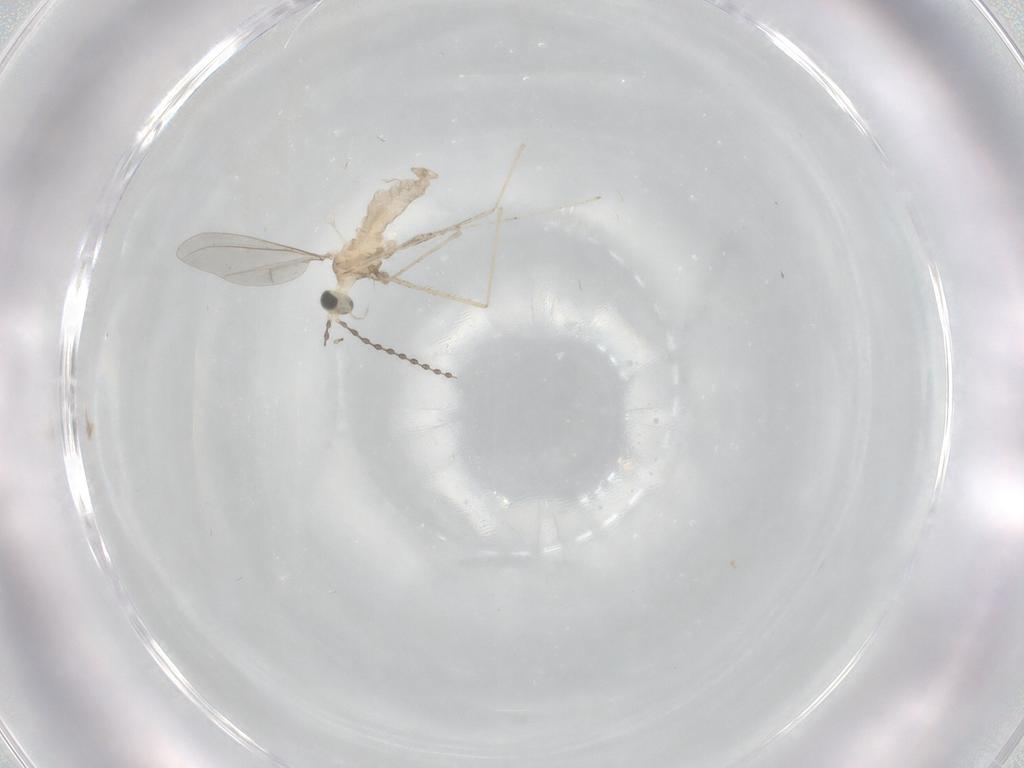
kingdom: Animalia
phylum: Arthropoda
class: Insecta
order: Diptera
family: Cecidomyiidae
